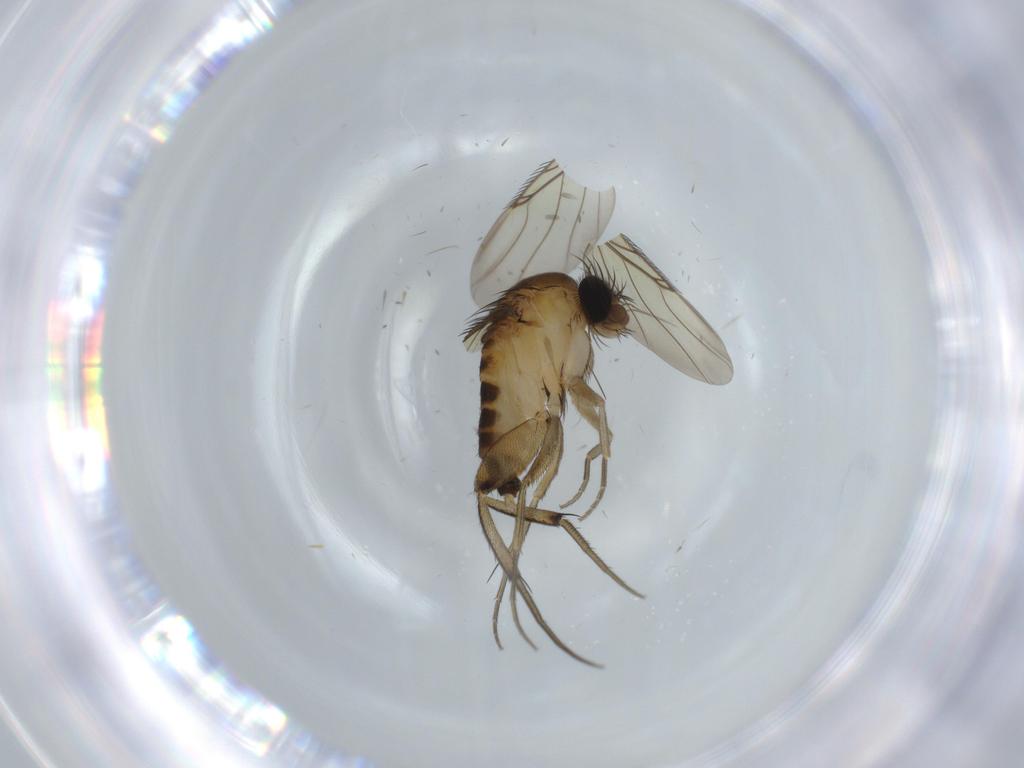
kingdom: Animalia
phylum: Arthropoda
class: Insecta
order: Diptera
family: Phoridae
